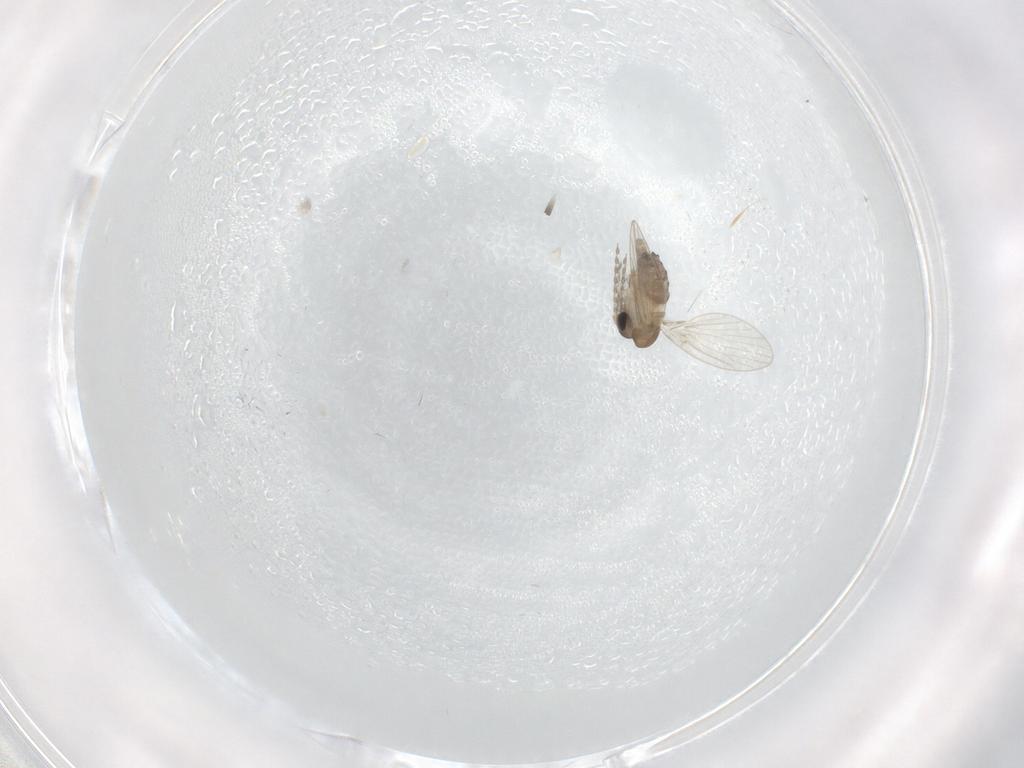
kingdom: Animalia
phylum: Arthropoda
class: Insecta
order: Diptera
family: Psychodidae
